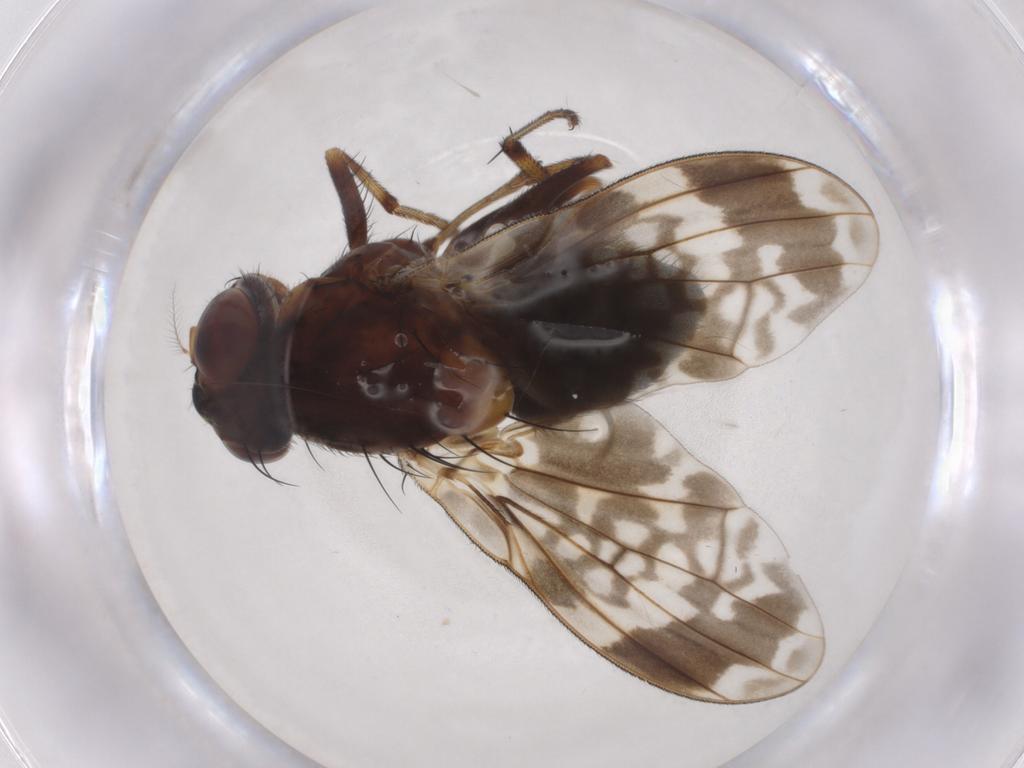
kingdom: Animalia
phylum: Arthropoda
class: Insecta
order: Diptera
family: Lauxaniidae
